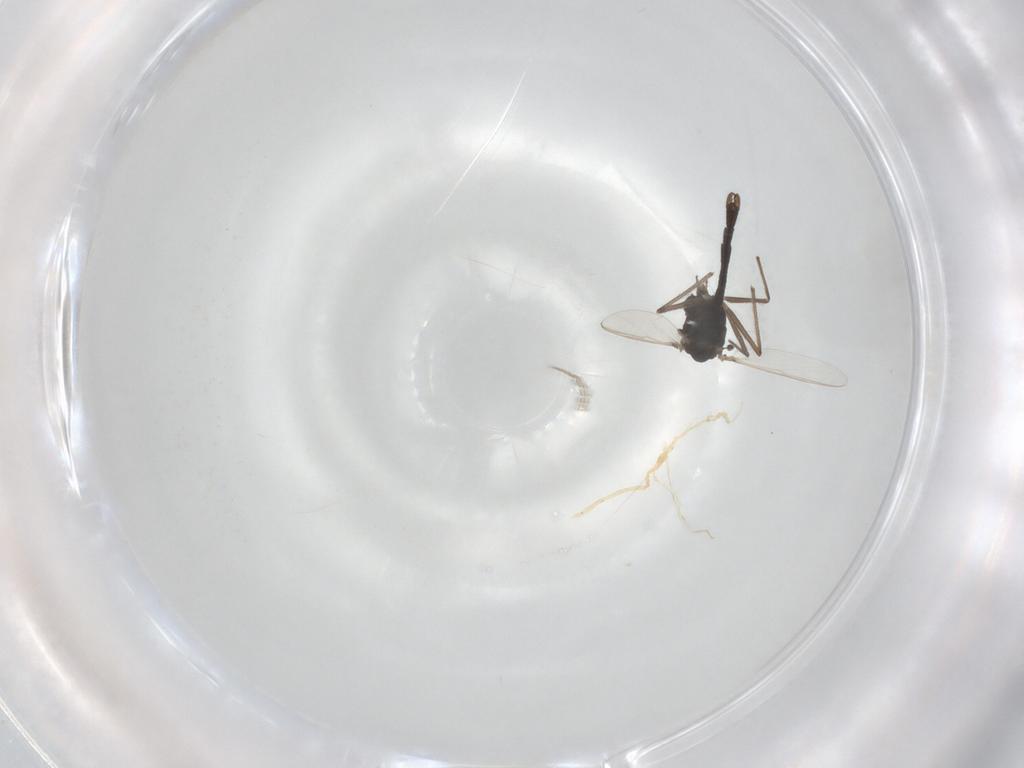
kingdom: Animalia
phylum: Arthropoda
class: Insecta
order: Diptera
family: Chironomidae
